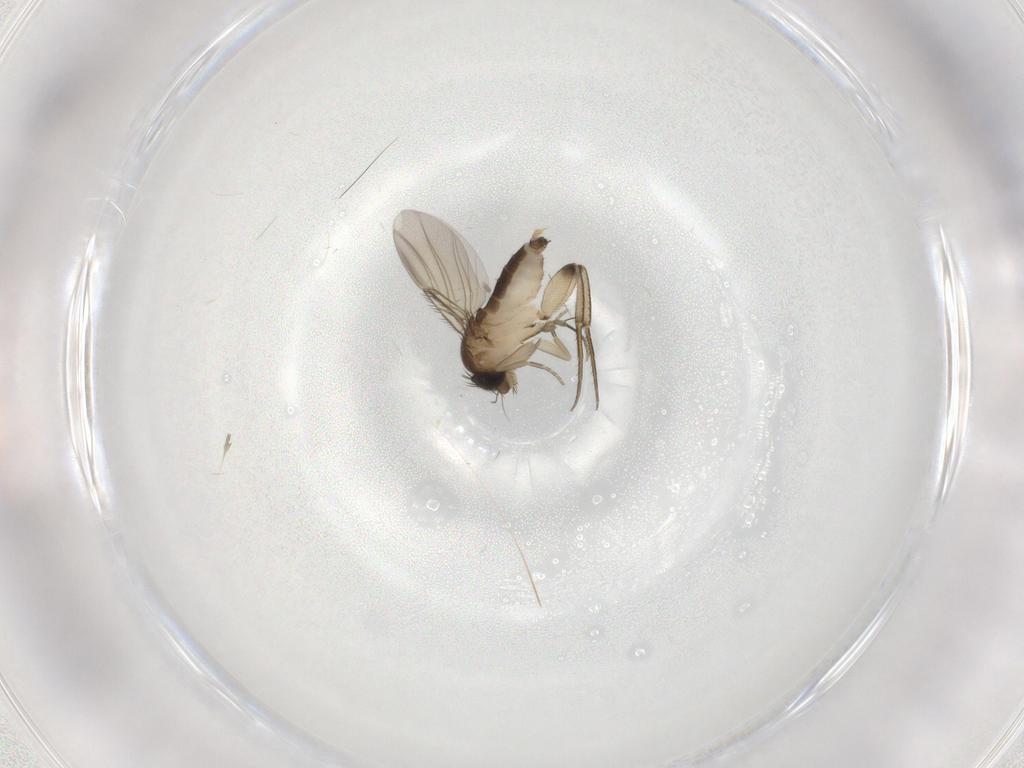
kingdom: Animalia
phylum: Arthropoda
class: Insecta
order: Diptera
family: Phoridae
